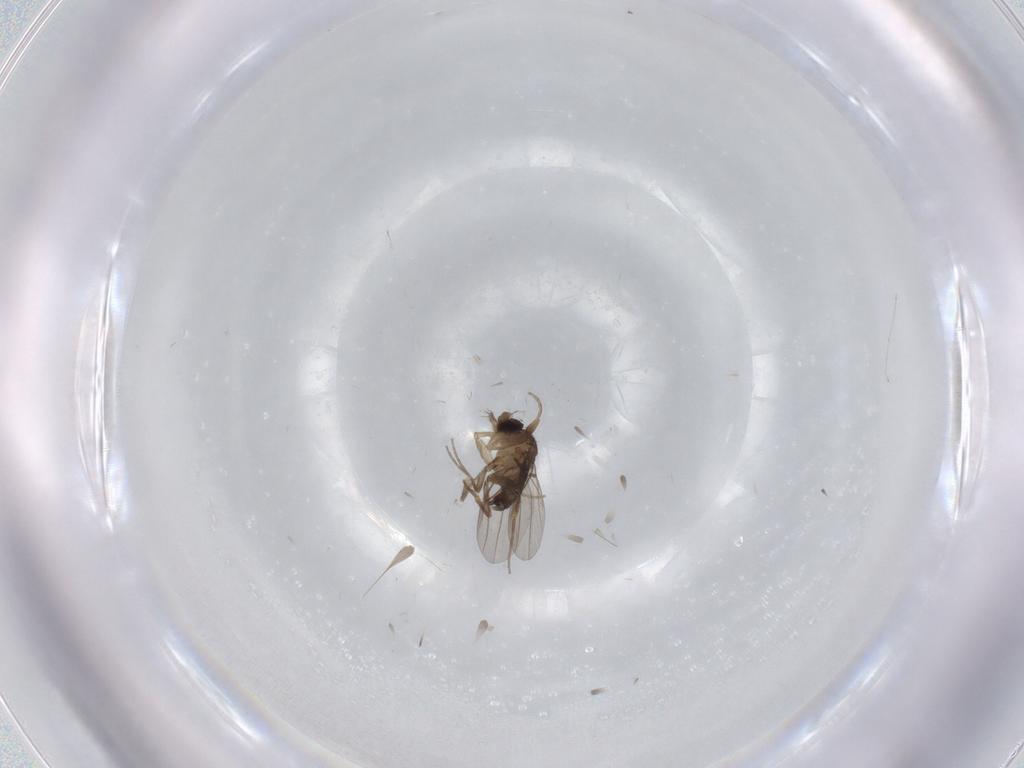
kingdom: Animalia
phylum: Arthropoda
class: Insecta
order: Diptera
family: Phoridae
